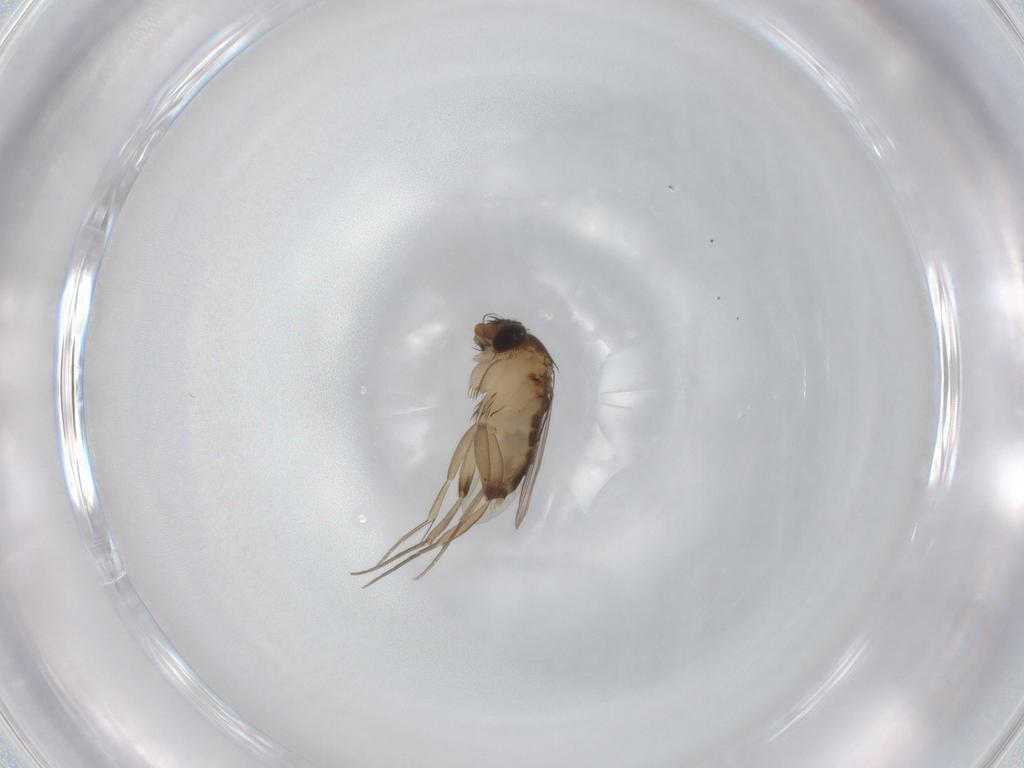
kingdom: Animalia
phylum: Arthropoda
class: Insecta
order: Diptera
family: Phoridae
